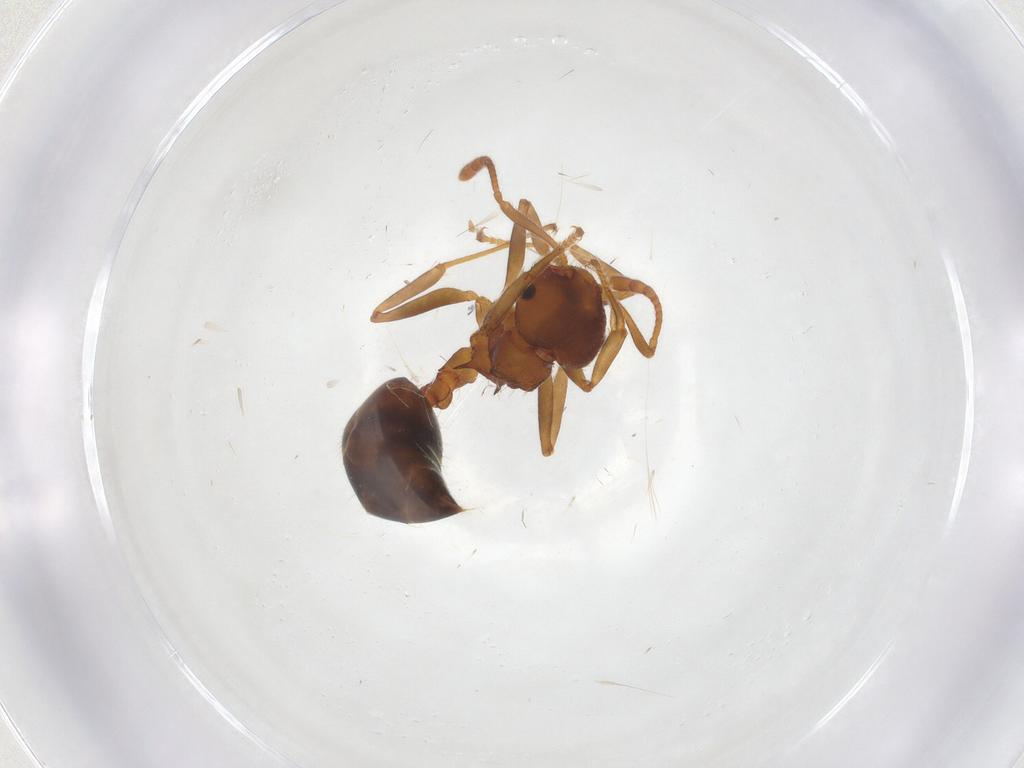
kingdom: Animalia
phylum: Arthropoda
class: Insecta
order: Hymenoptera
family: Formicidae
